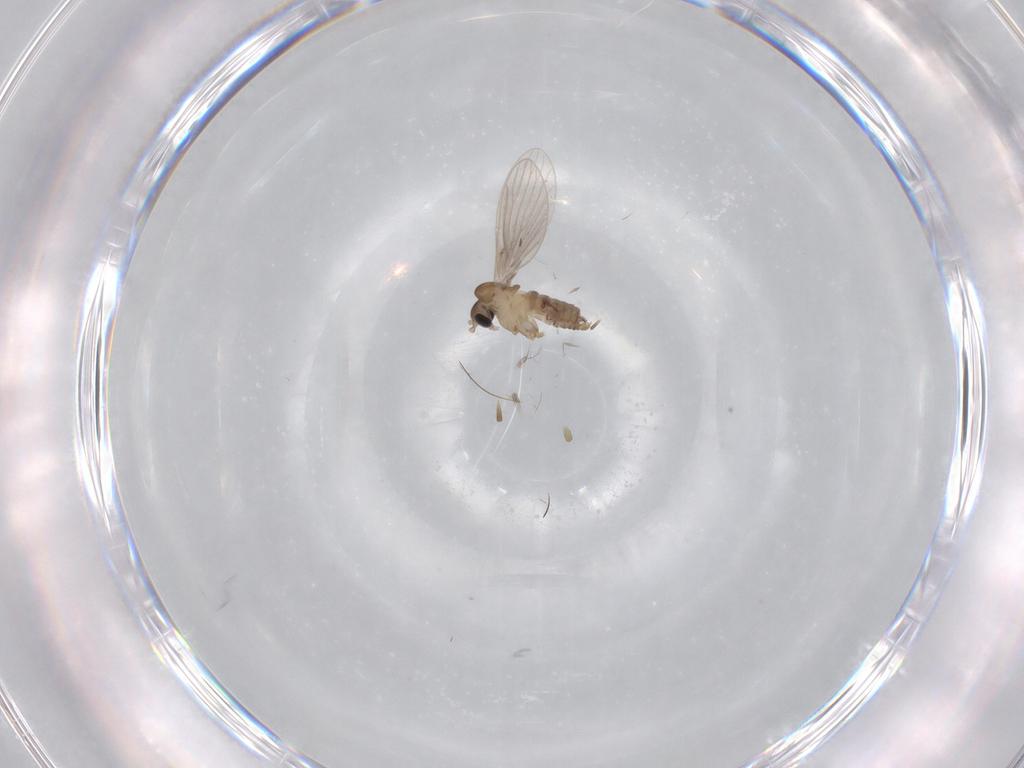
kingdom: Animalia
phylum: Arthropoda
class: Insecta
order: Diptera
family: Psychodidae
